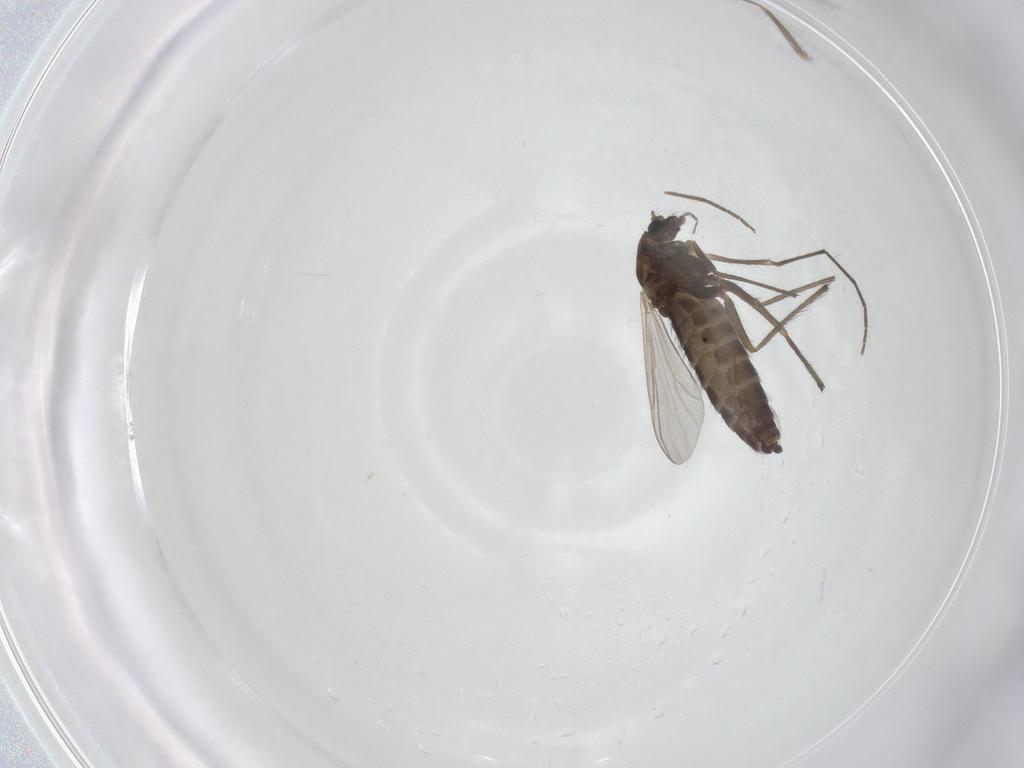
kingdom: Animalia
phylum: Arthropoda
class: Insecta
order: Diptera
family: Chironomidae
